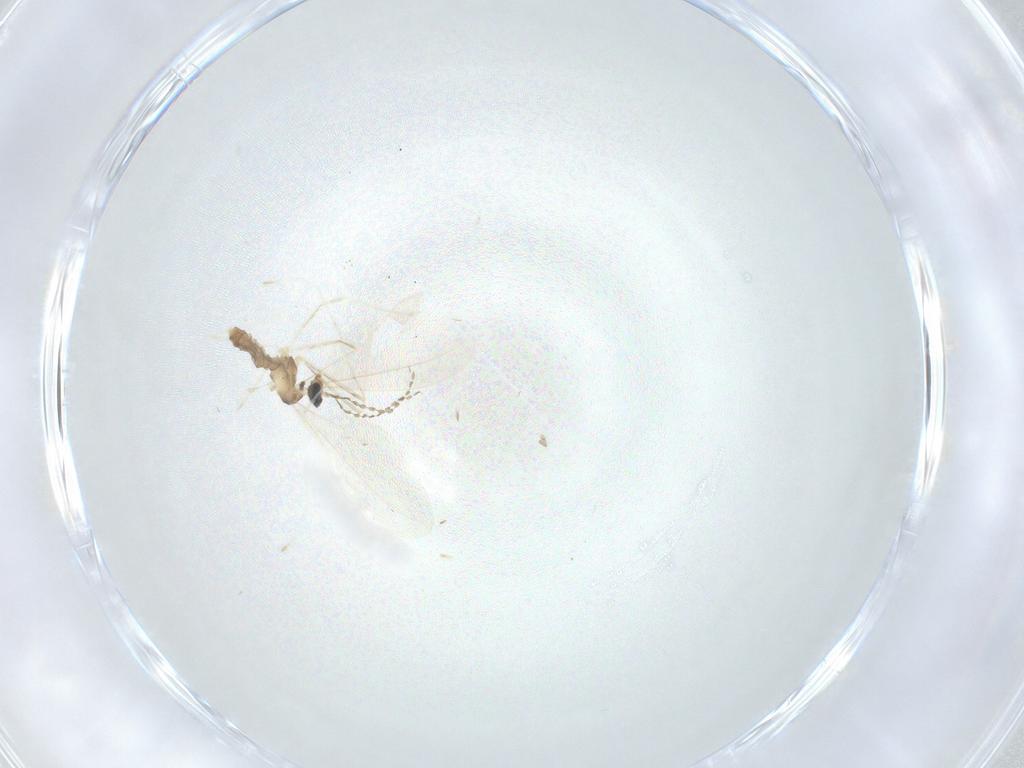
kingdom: Animalia
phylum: Arthropoda
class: Insecta
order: Diptera
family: Cecidomyiidae
